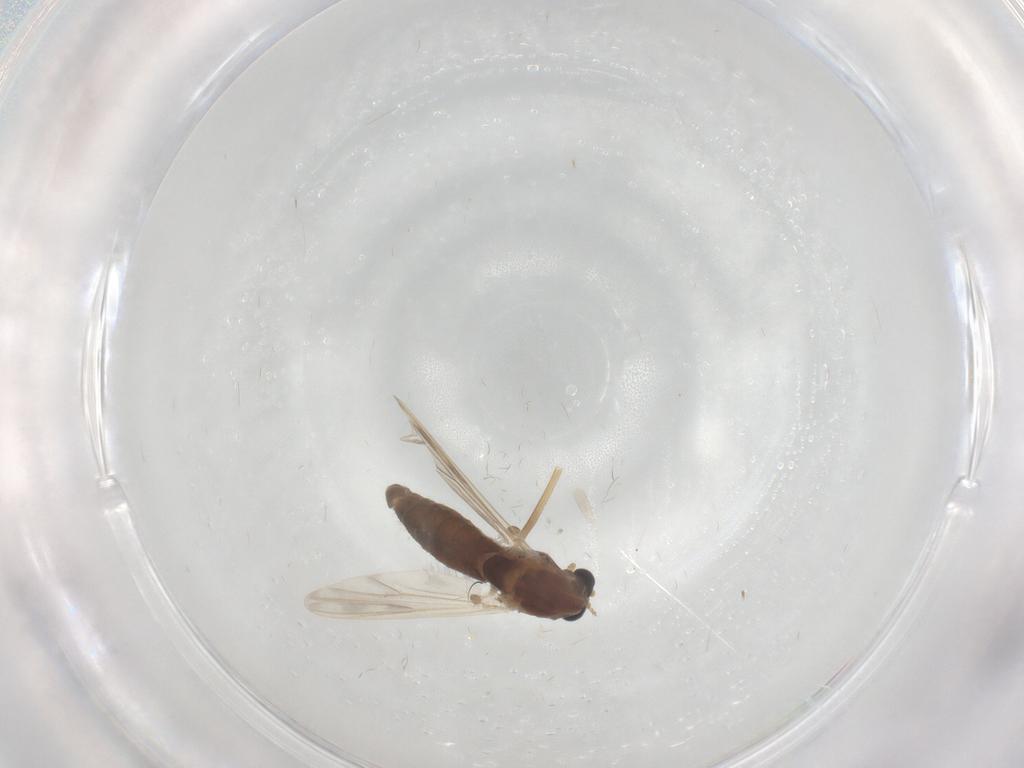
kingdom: Animalia
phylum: Arthropoda
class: Insecta
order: Diptera
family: Chironomidae
